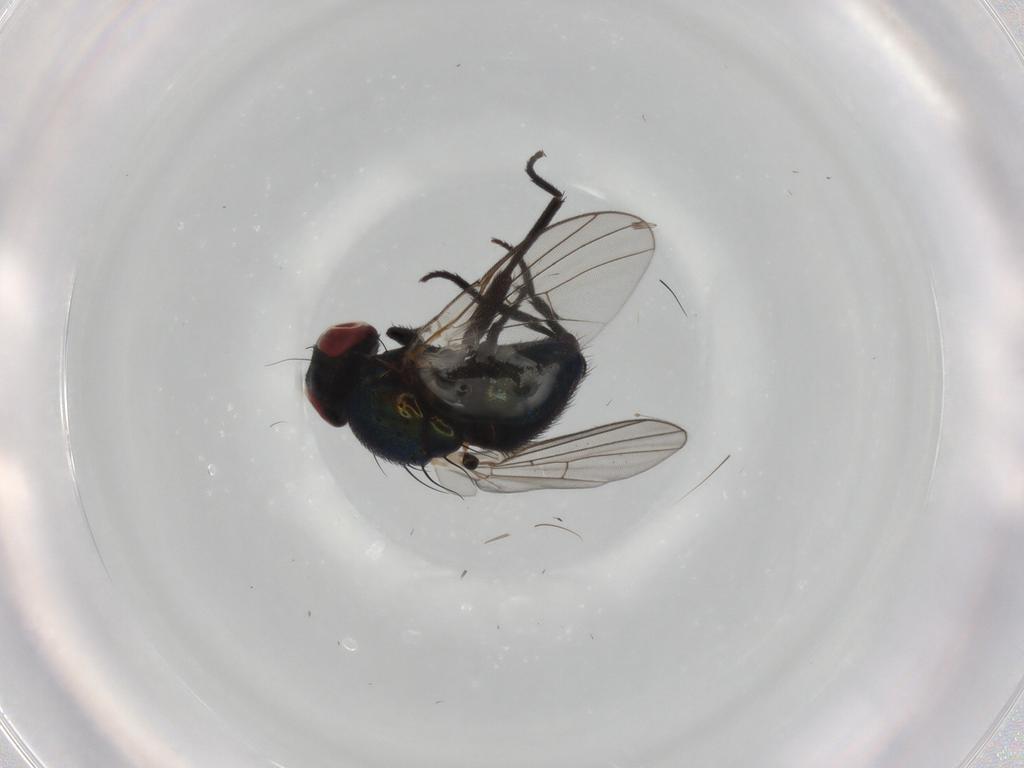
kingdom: Animalia
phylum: Arthropoda
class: Insecta
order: Diptera
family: Agromyzidae
